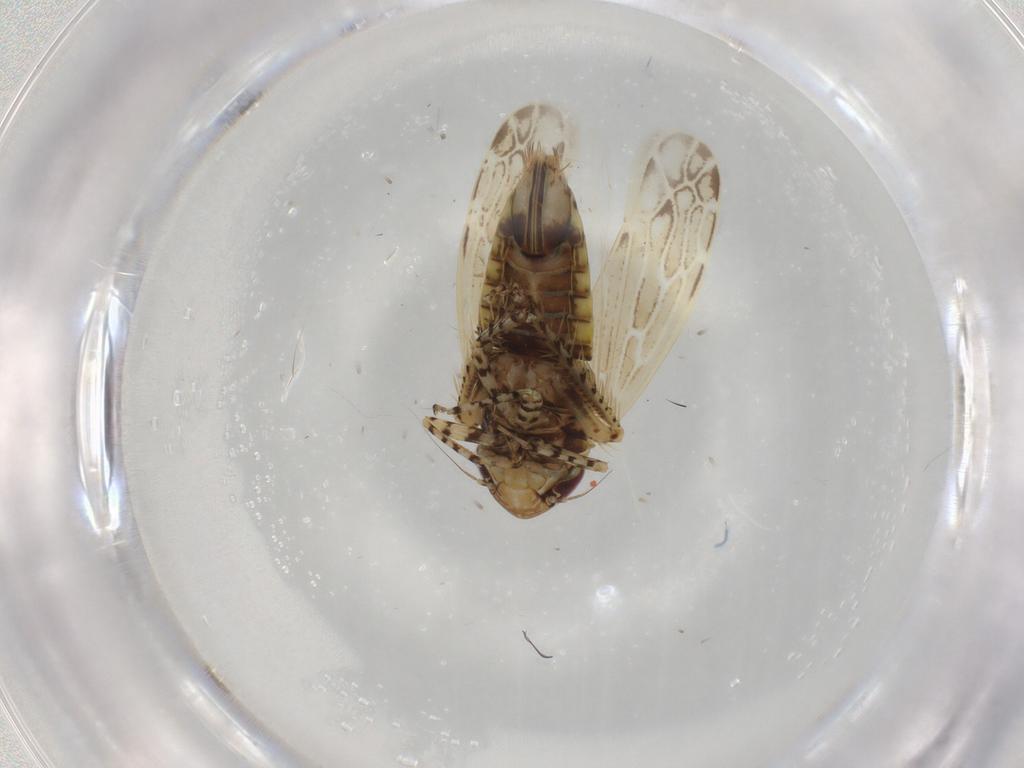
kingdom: Animalia
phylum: Arthropoda
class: Insecta
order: Hemiptera
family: Cicadellidae
